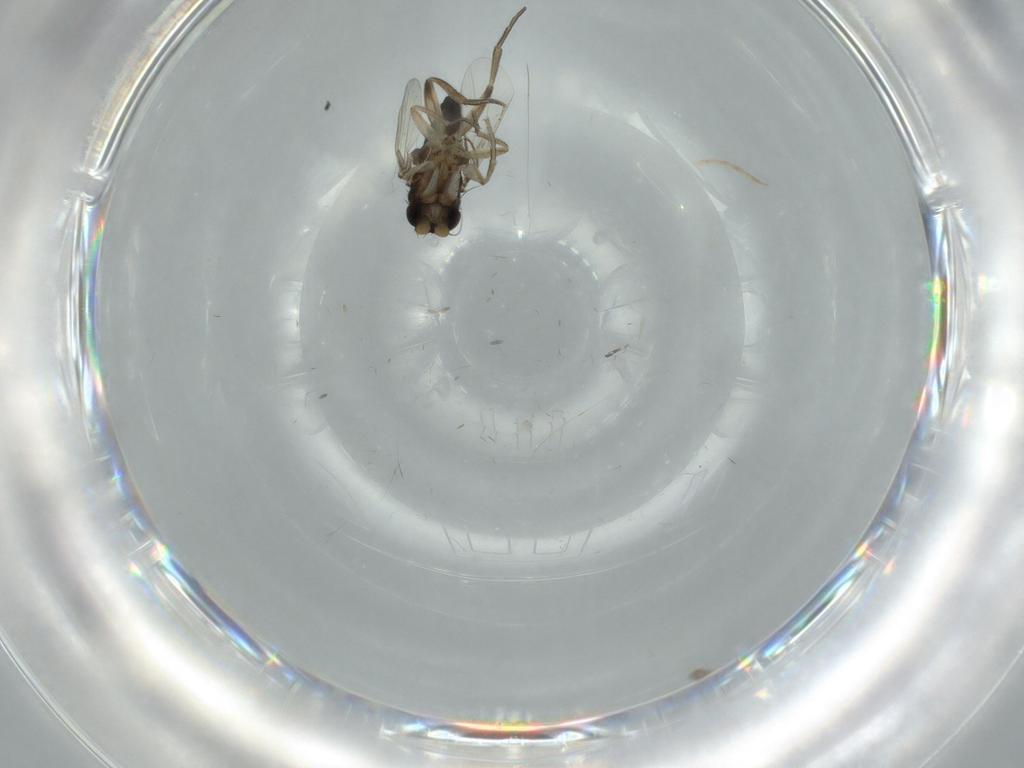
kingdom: Animalia
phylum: Arthropoda
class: Insecta
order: Diptera
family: Phoridae
